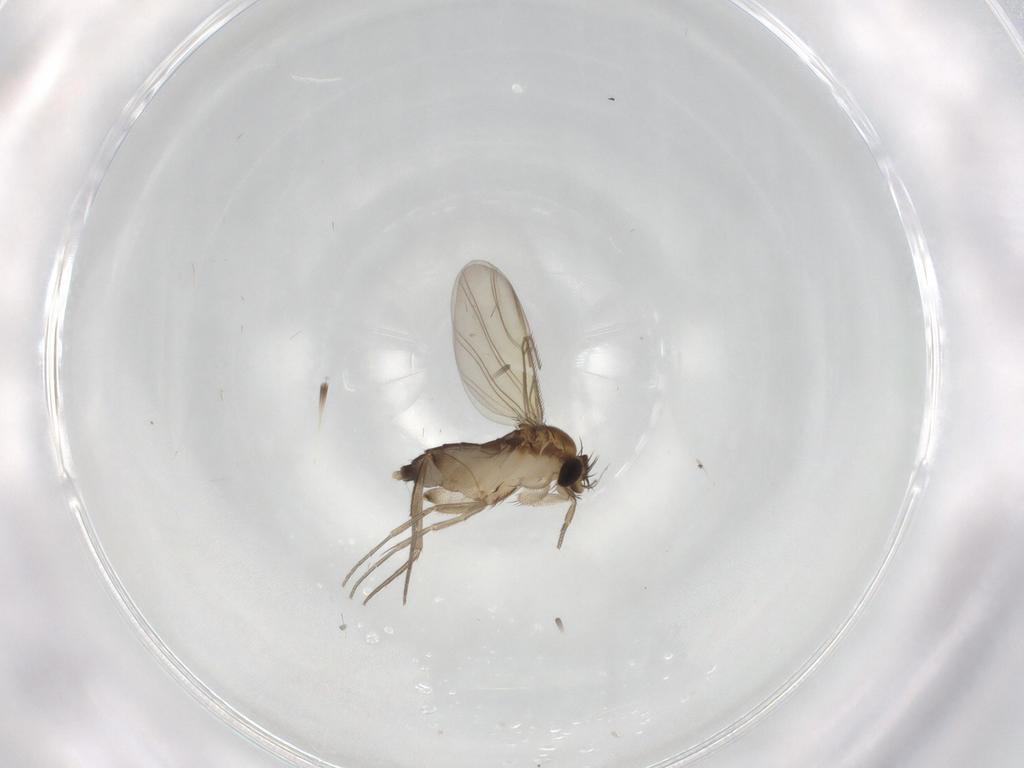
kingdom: Animalia
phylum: Arthropoda
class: Insecta
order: Diptera
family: Phoridae
